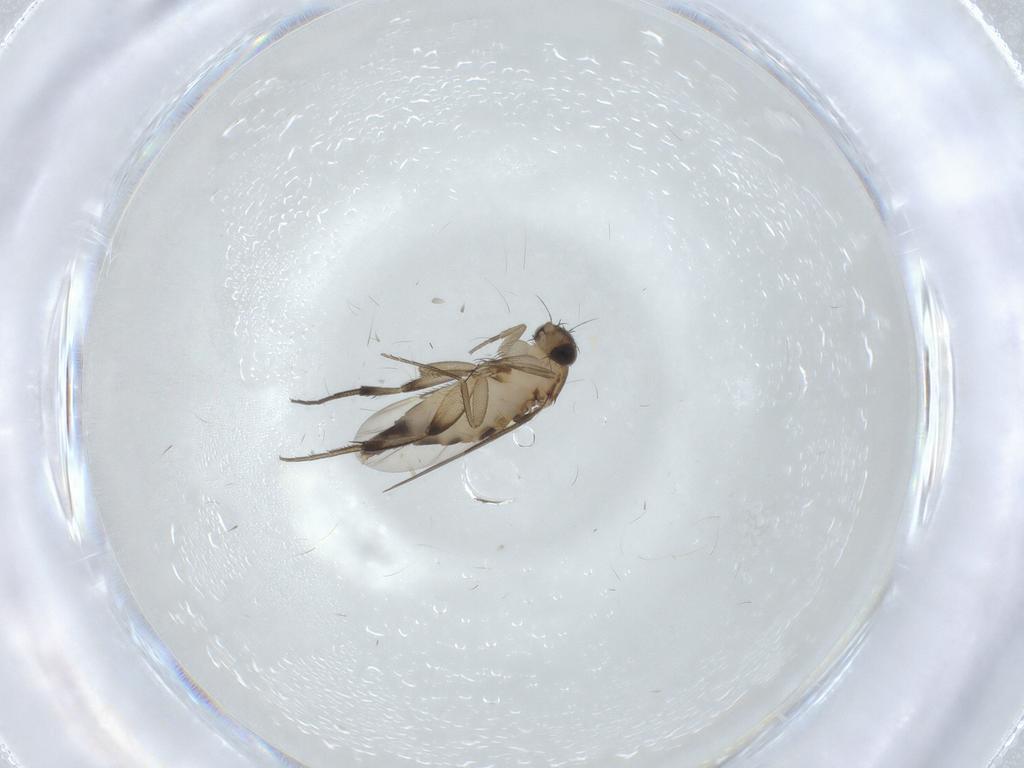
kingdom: Animalia
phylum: Arthropoda
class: Insecta
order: Diptera
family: Phoridae
